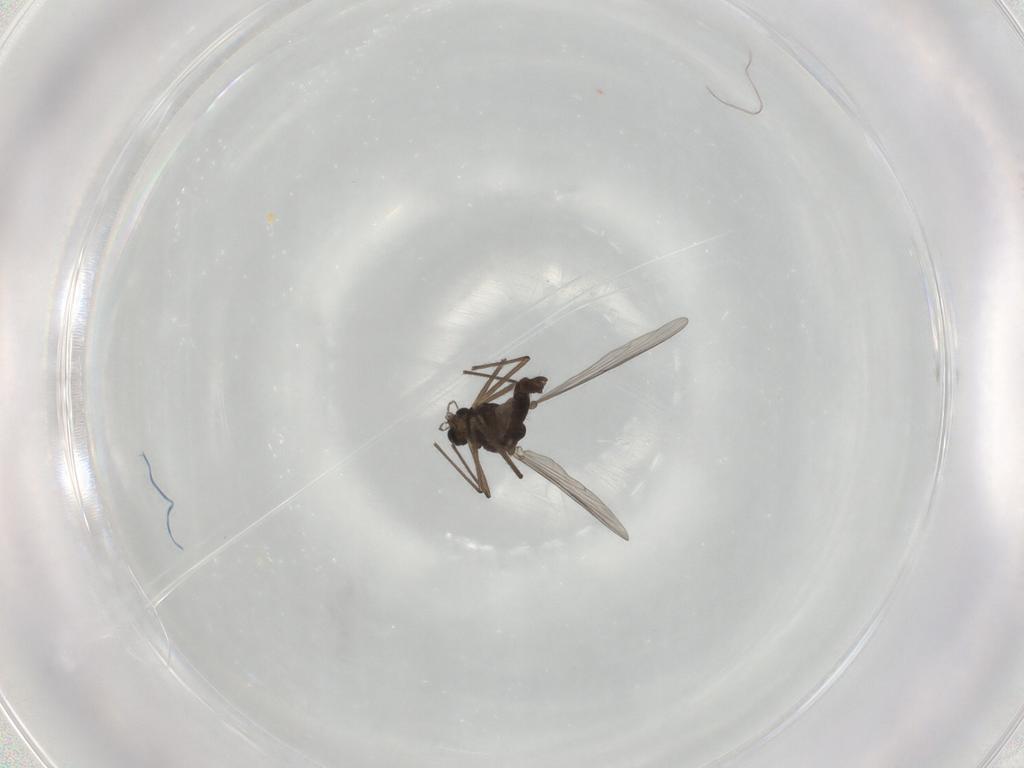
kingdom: Animalia
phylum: Arthropoda
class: Insecta
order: Diptera
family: Chironomidae
